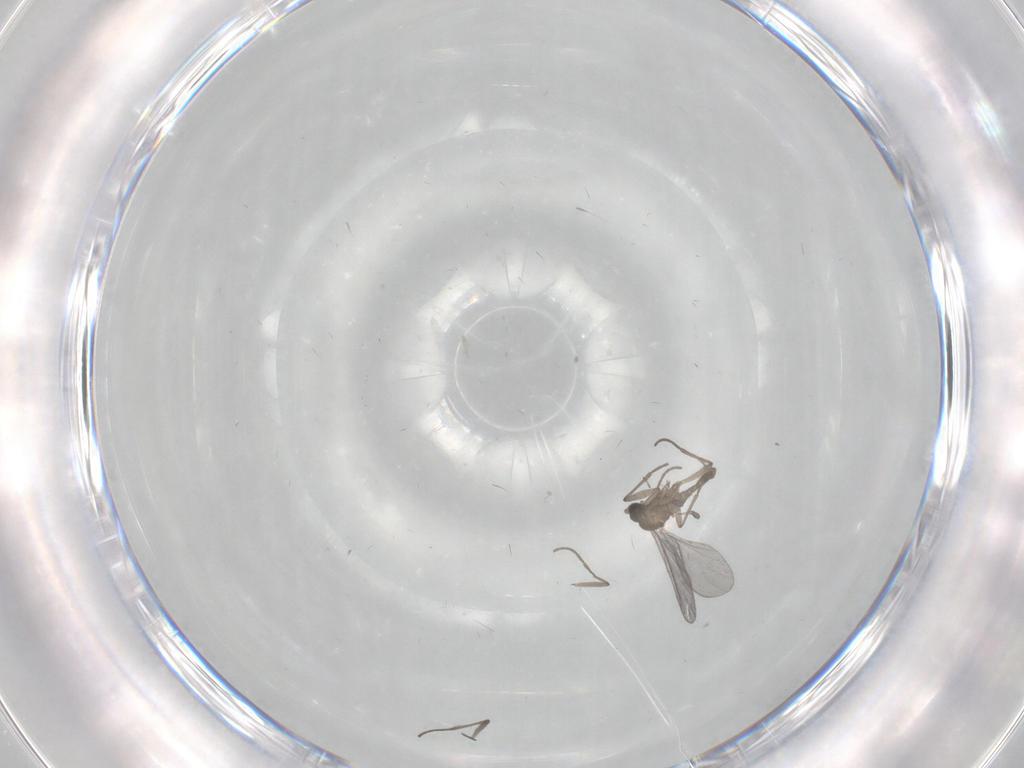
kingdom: Animalia
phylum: Arthropoda
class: Insecta
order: Diptera
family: Sciaridae
